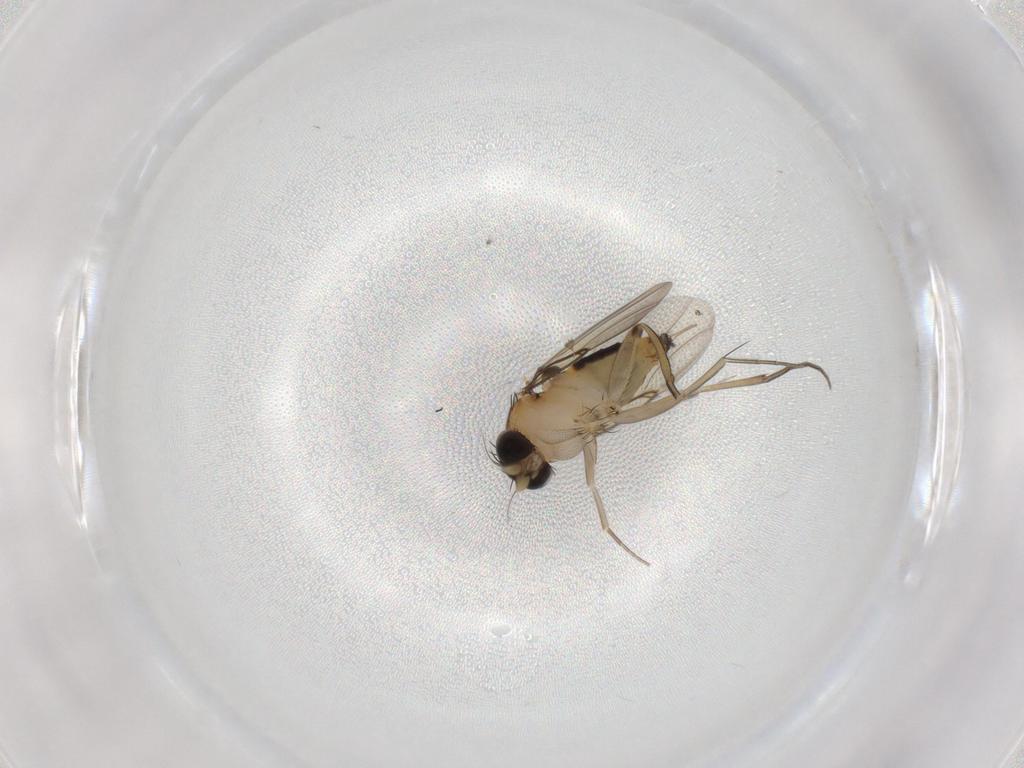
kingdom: Animalia
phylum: Arthropoda
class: Insecta
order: Diptera
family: Phoridae
